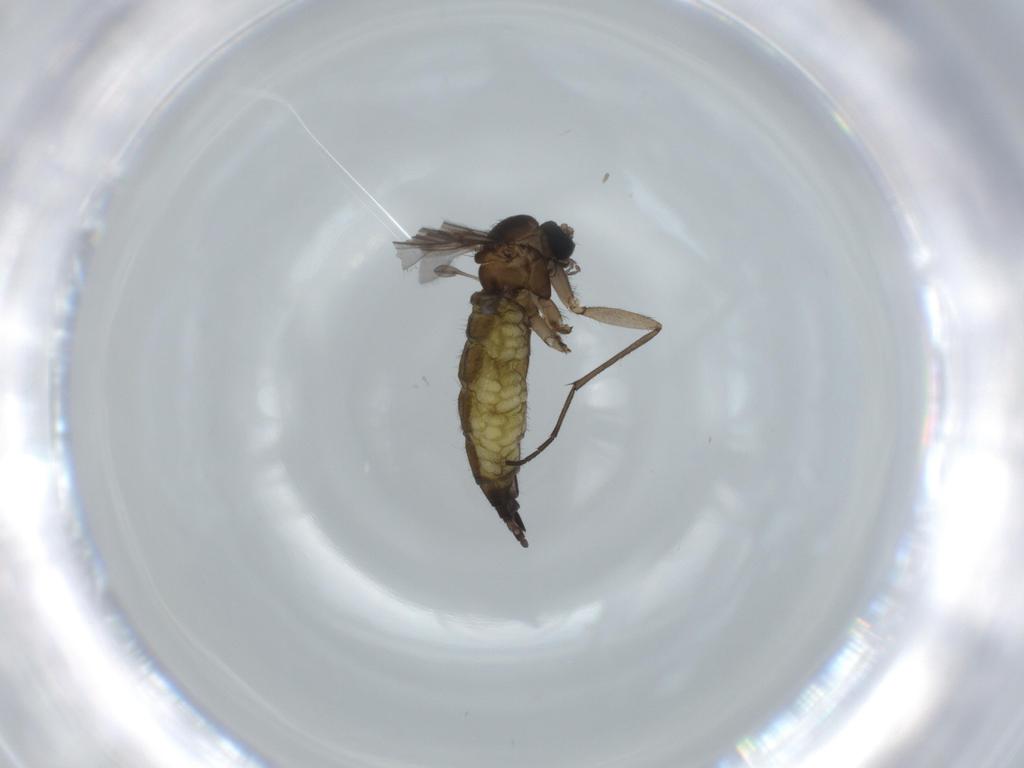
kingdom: Animalia
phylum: Arthropoda
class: Insecta
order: Diptera
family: Sciaridae
